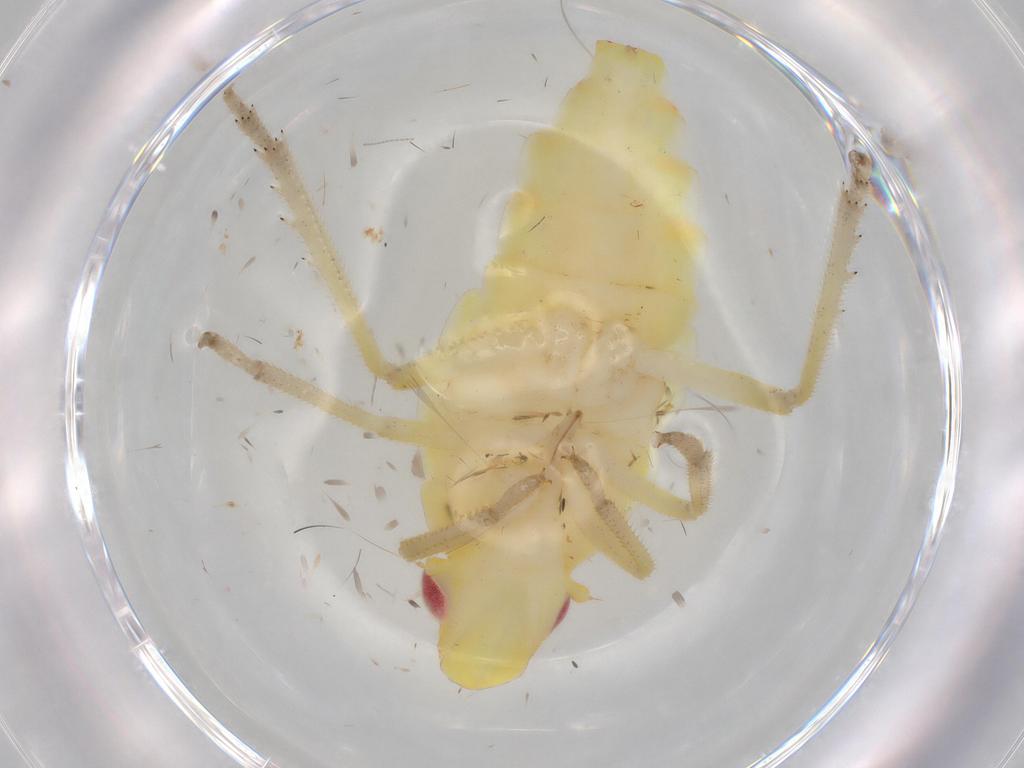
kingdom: Animalia
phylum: Arthropoda
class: Insecta
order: Hemiptera
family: Tropiduchidae
